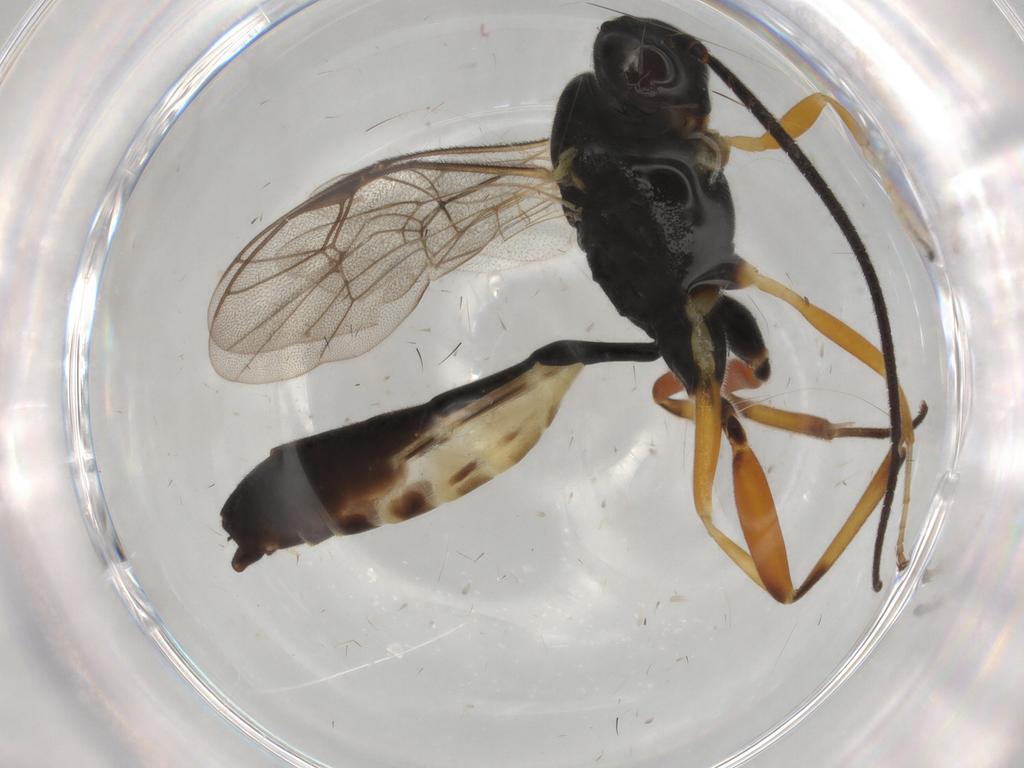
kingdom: Animalia
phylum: Arthropoda
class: Insecta
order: Hymenoptera
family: Ichneumonidae
